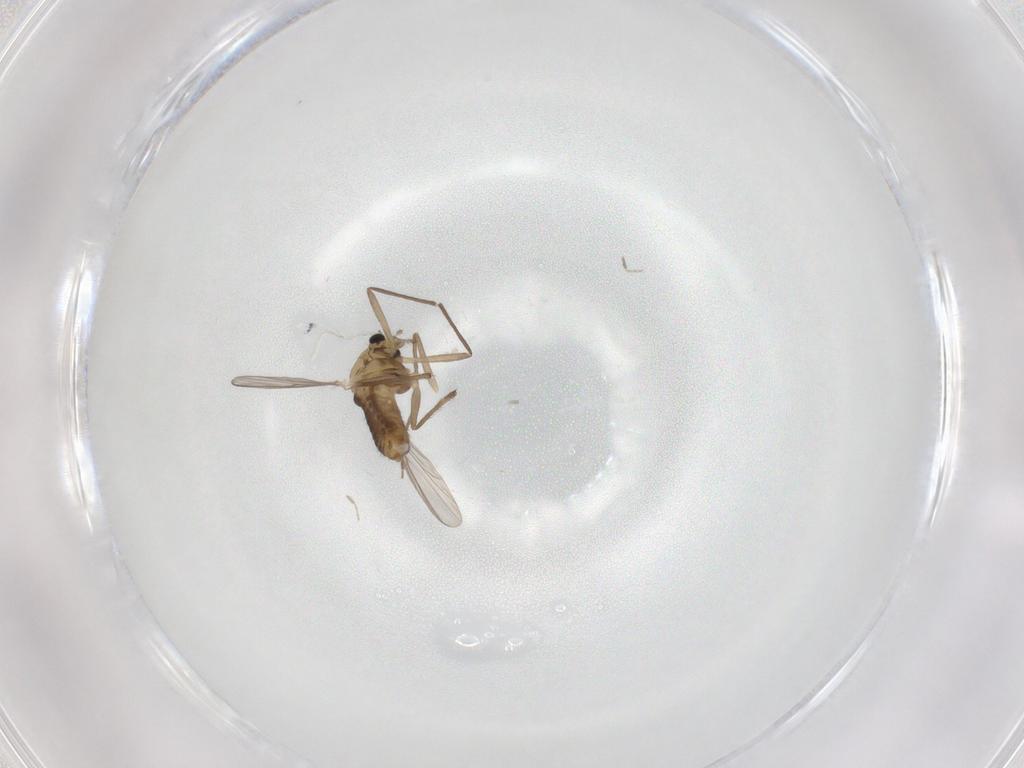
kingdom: Animalia
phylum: Arthropoda
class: Insecta
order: Diptera
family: Chironomidae
